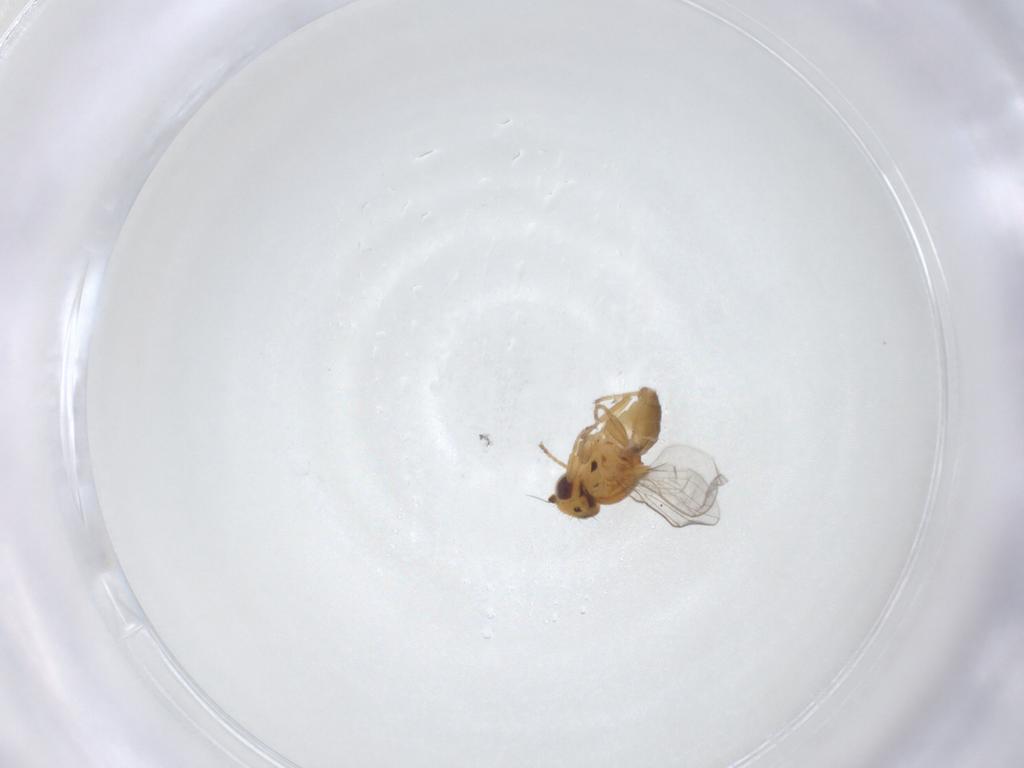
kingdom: Animalia
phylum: Arthropoda
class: Insecta
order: Diptera
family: Chloropidae
